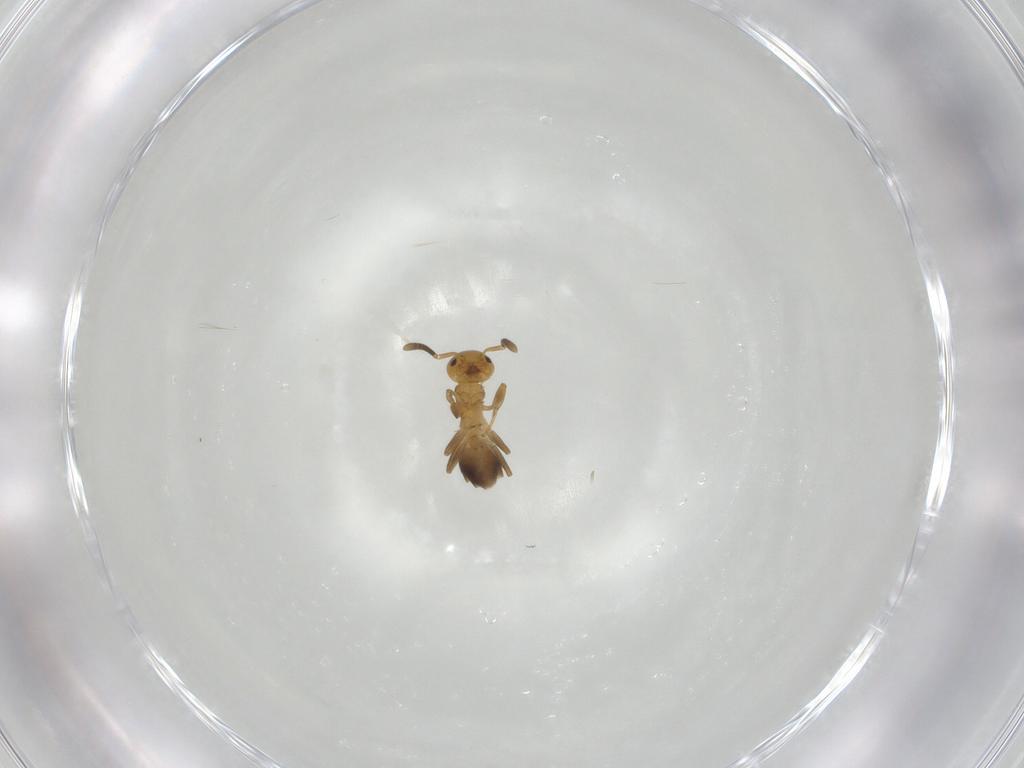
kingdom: Animalia
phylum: Arthropoda
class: Insecta
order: Hymenoptera
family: Formicidae
